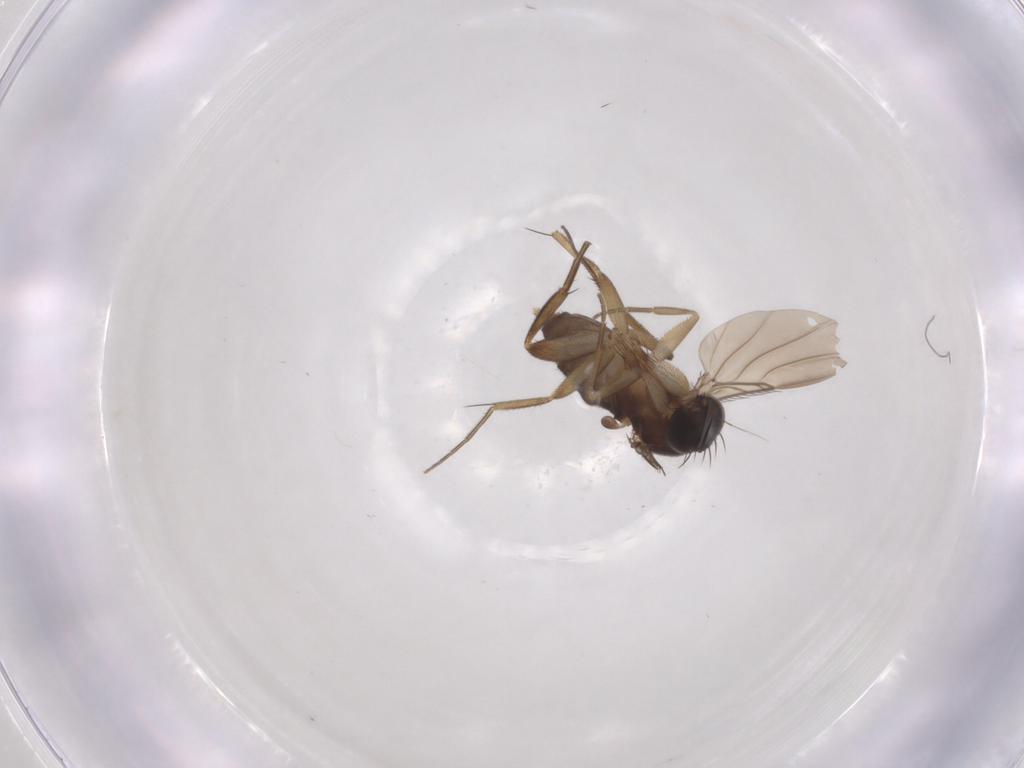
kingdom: Animalia
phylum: Arthropoda
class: Insecta
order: Diptera
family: Phoridae
